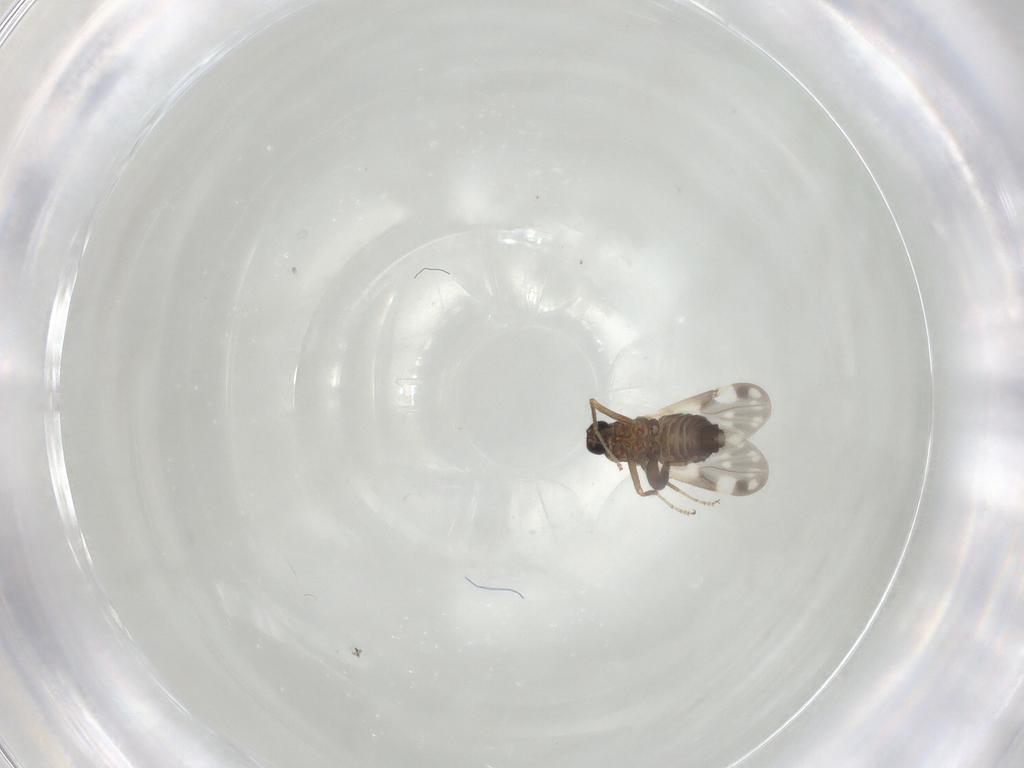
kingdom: Animalia
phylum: Arthropoda
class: Insecta
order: Diptera
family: Ceratopogonidae
